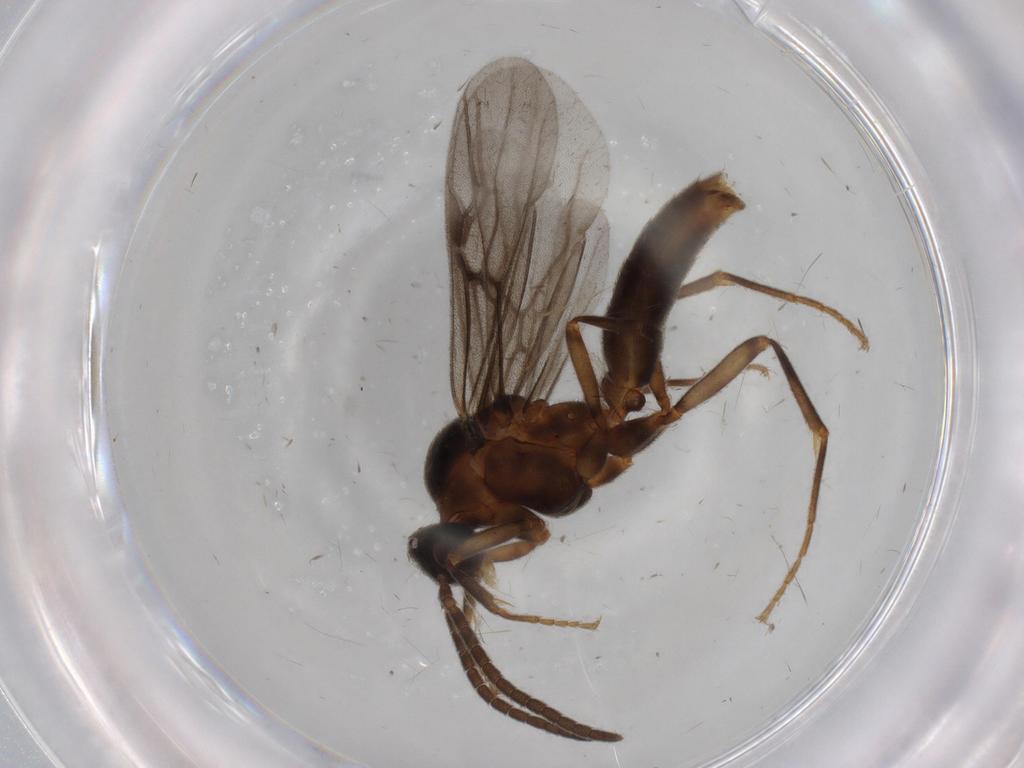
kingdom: Animalia
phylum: Arthropoda
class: Insecta
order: Hymenoptera
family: Formicidae
